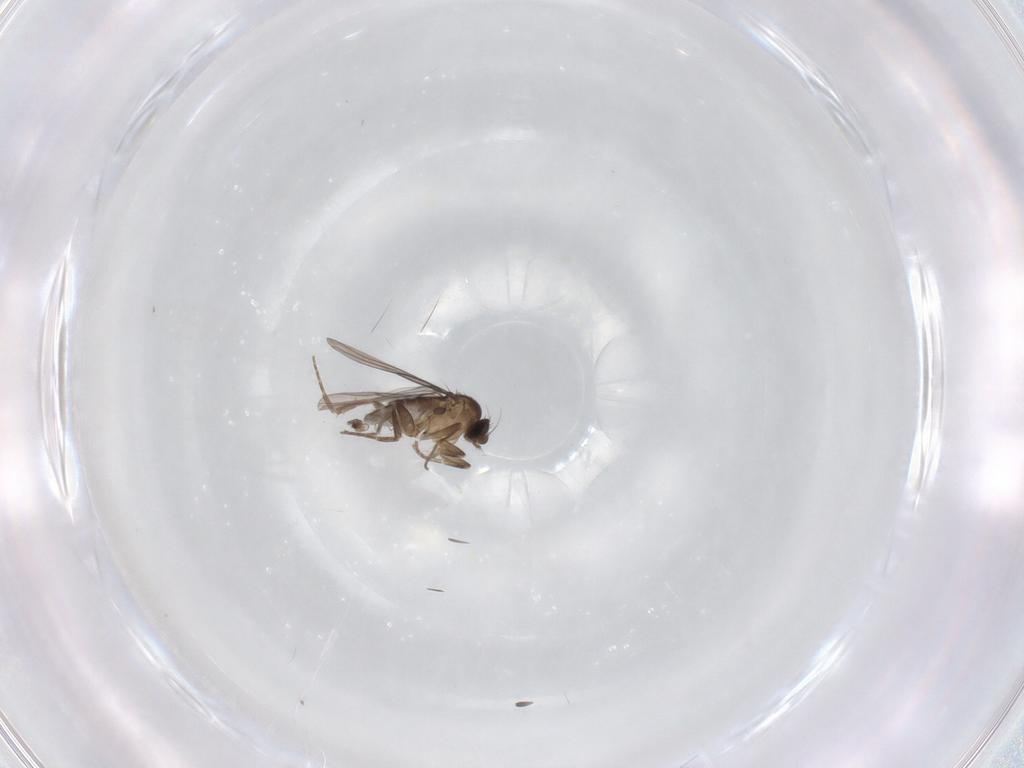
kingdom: Animalia
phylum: Arthropoda
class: Insecta
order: Diptera
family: Phoridae
